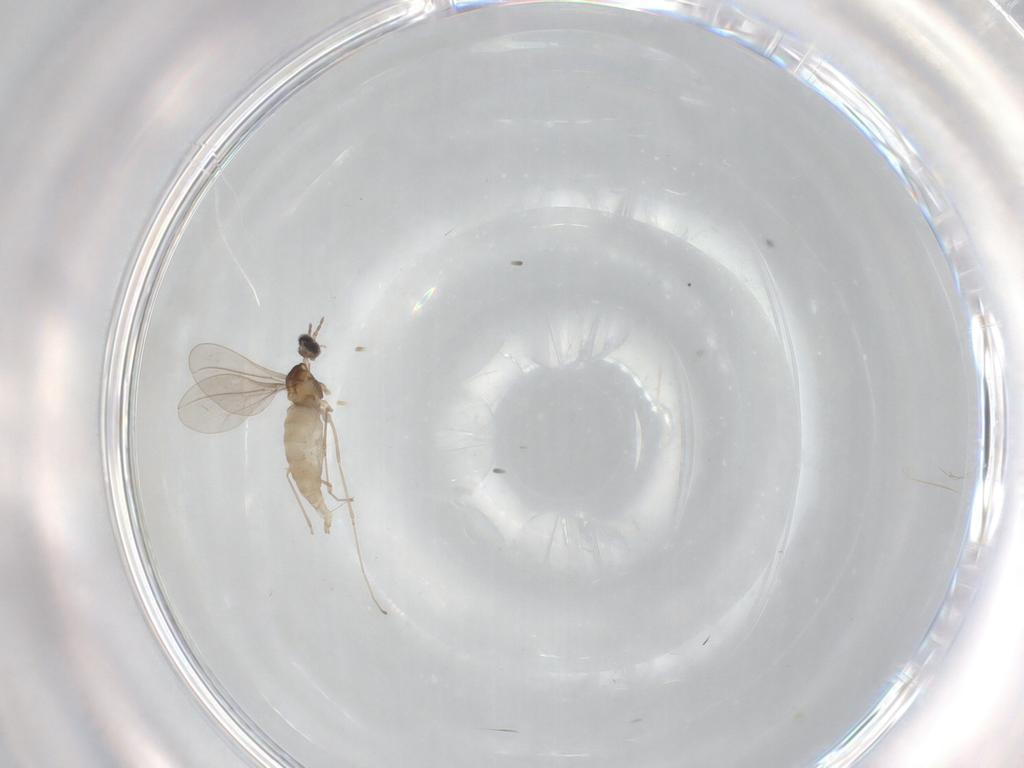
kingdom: Animalia
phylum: Arthropoda
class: Insecta
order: Diptera
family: Cecidomyiidae
